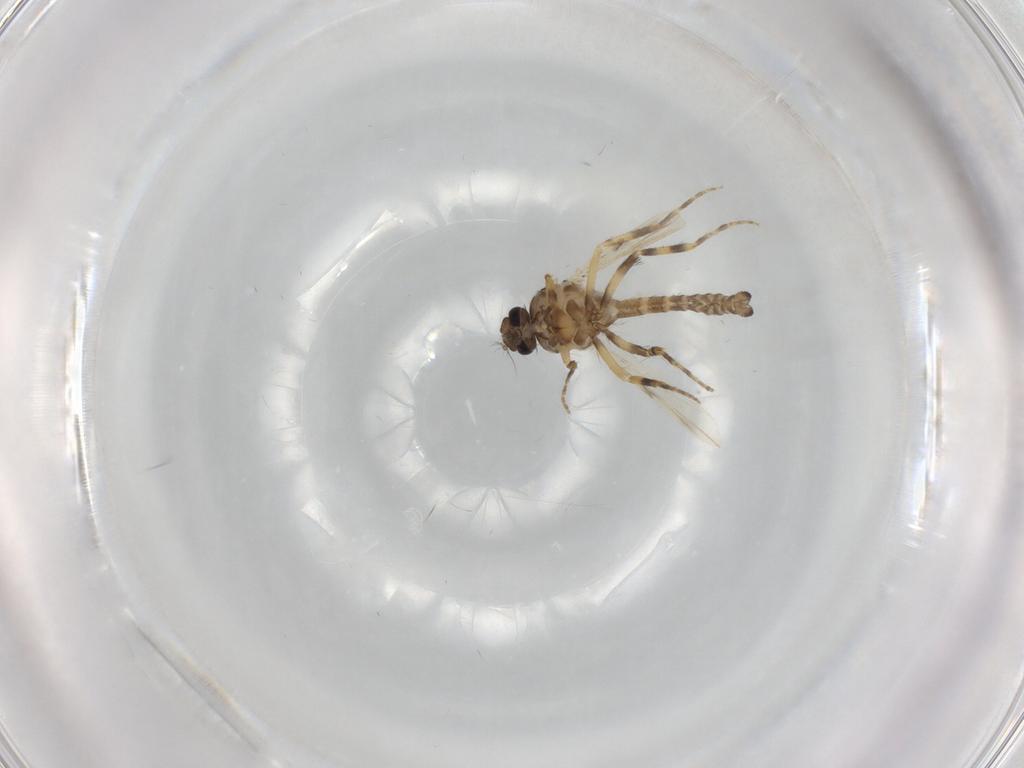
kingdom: Animalia
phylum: Arthropoda
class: Insecta
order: Diptera
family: Ceratopogonidae
